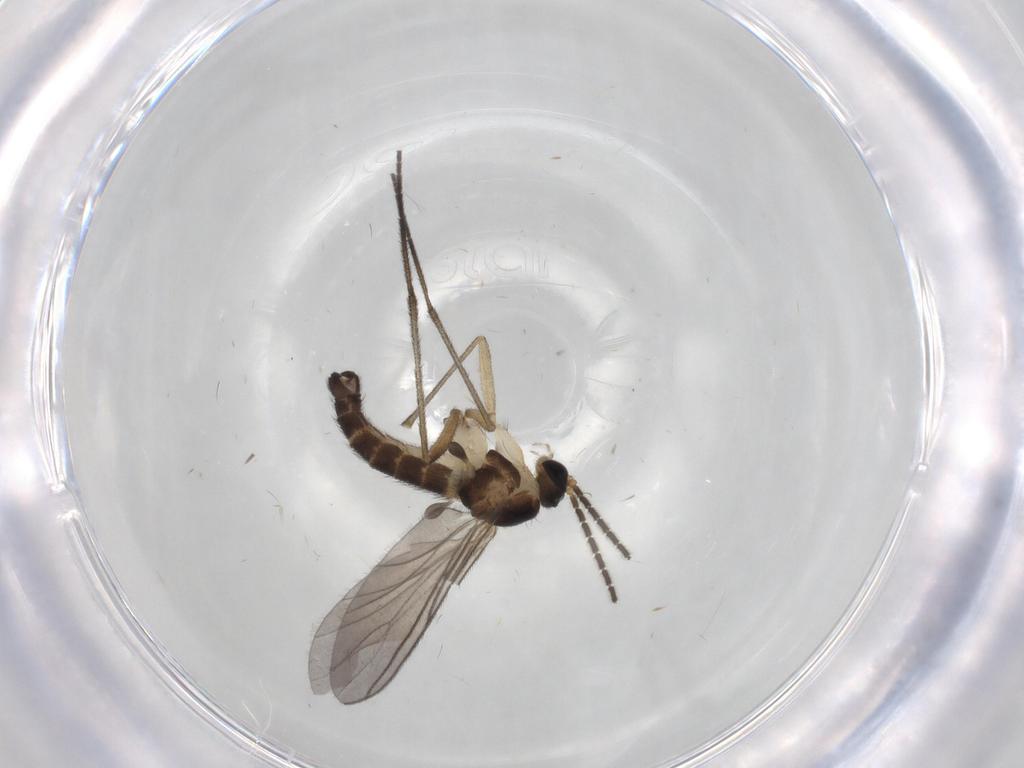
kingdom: Animalia
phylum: Arthropoda
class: Insecta
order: Diptera
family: Sciaridae
